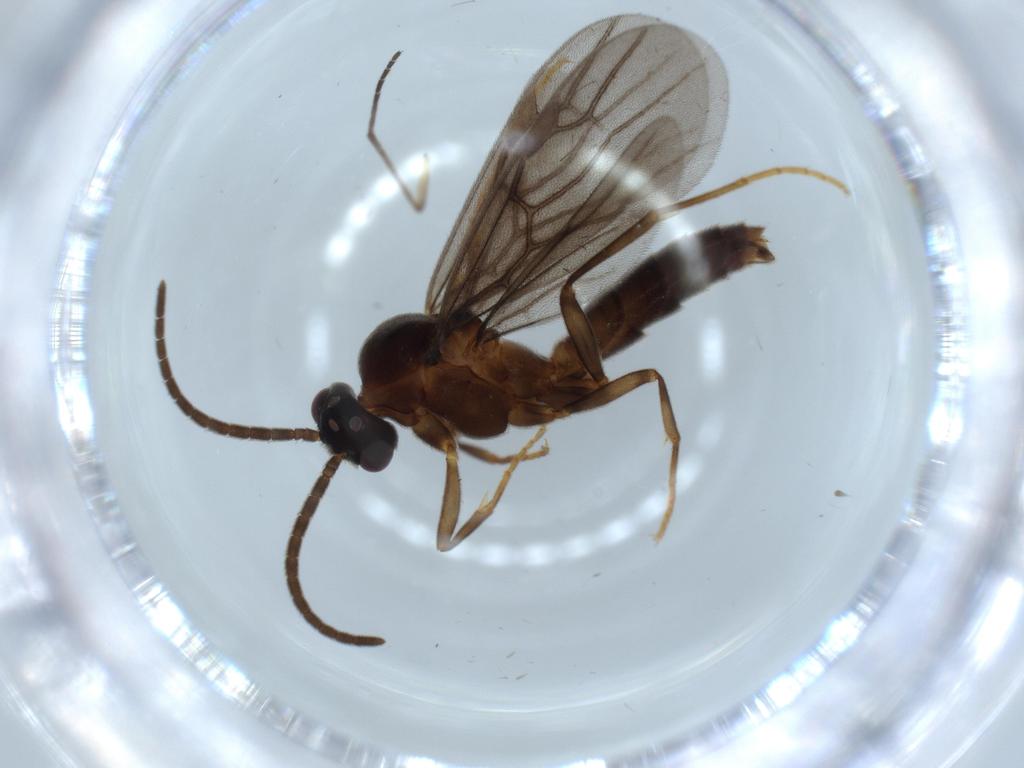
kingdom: Animalia
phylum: Arthropoda
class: Insecta
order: Hymenoptera
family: Formicidae
